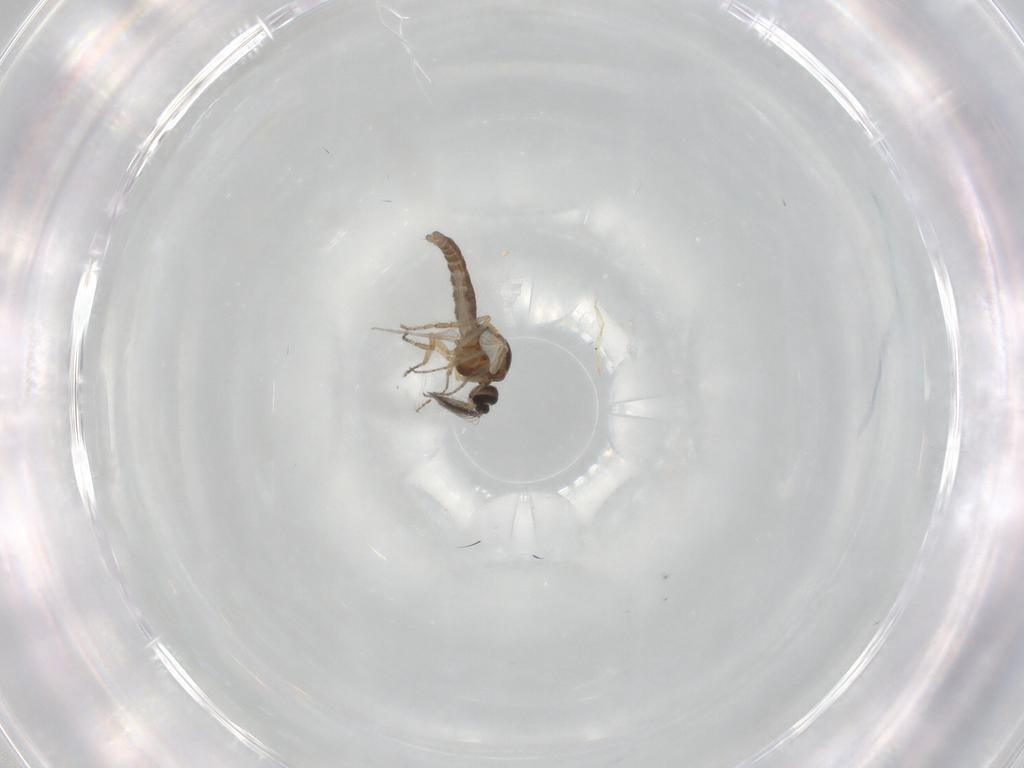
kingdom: Animalia
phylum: Arthropoda
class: Insecta
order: Diptera
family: Ceratopogonidae
